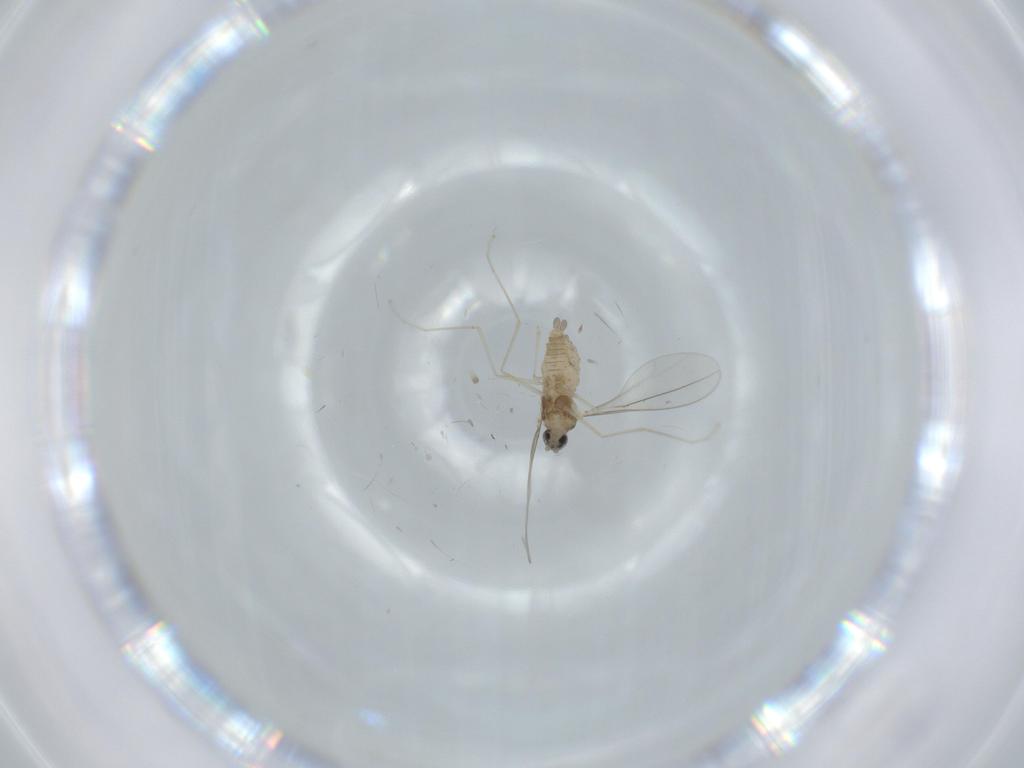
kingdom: Animalia
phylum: Arthropoda
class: Insecta
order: Diptera
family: Cecidomyiidae
